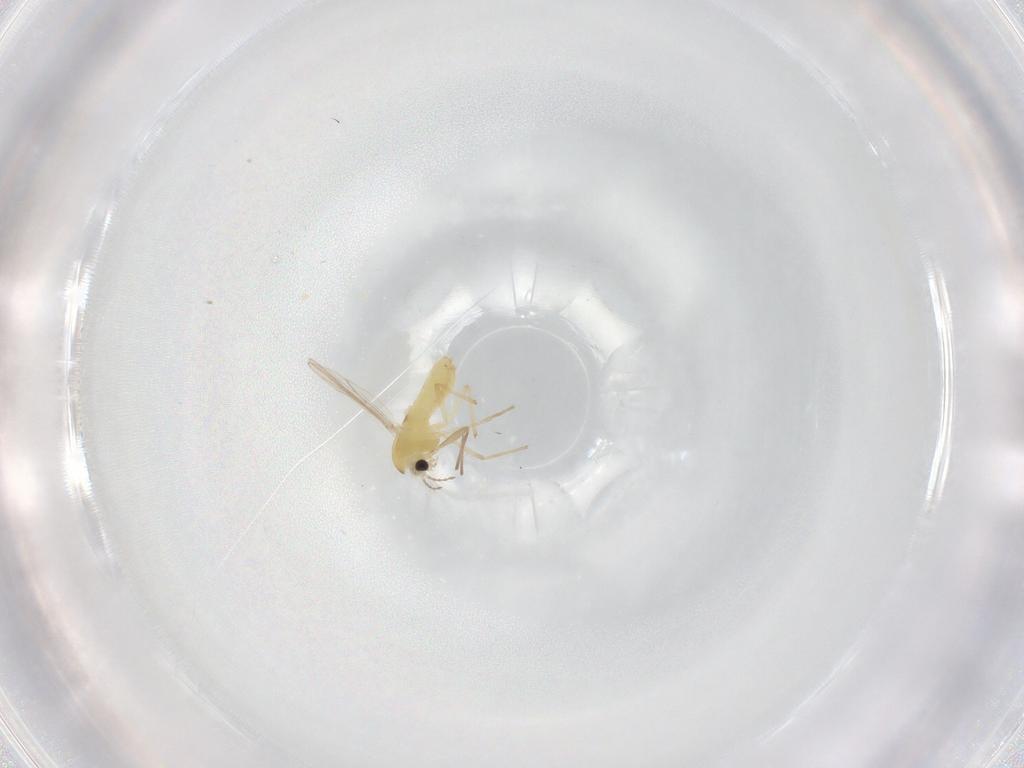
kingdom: Animalia
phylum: Arthropoda
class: Insecta
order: Diptera
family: Chironomidae
